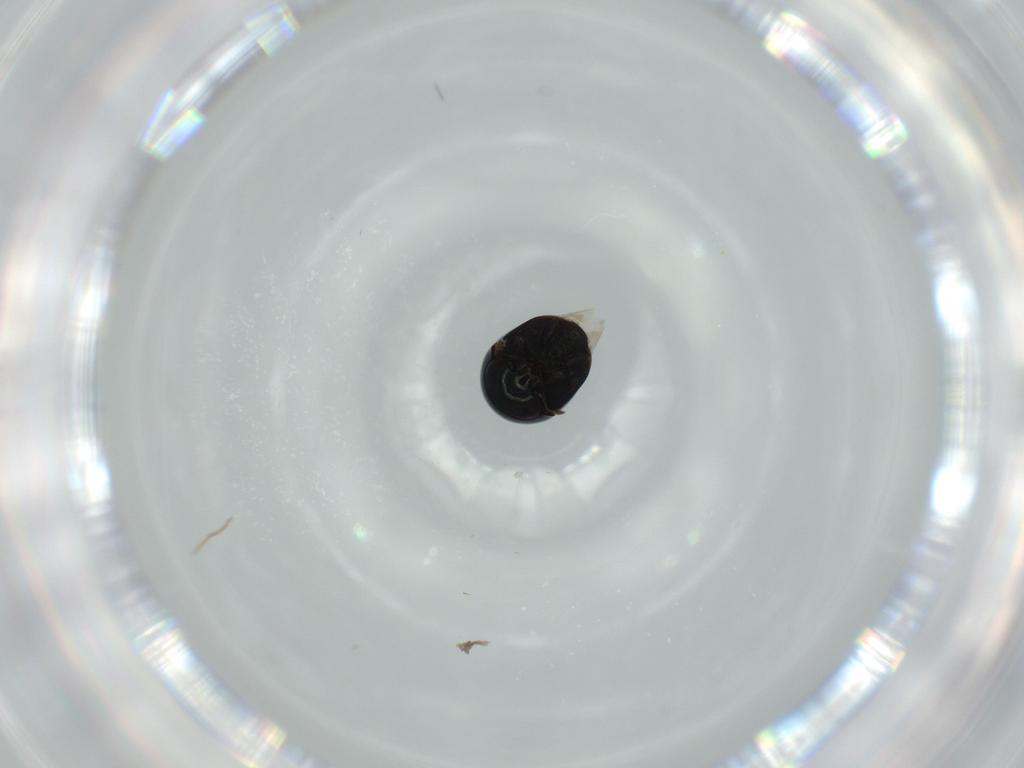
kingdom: Animalia
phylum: Arthropoda
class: Insecta
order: Coleoptera
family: Cybocephalidae
